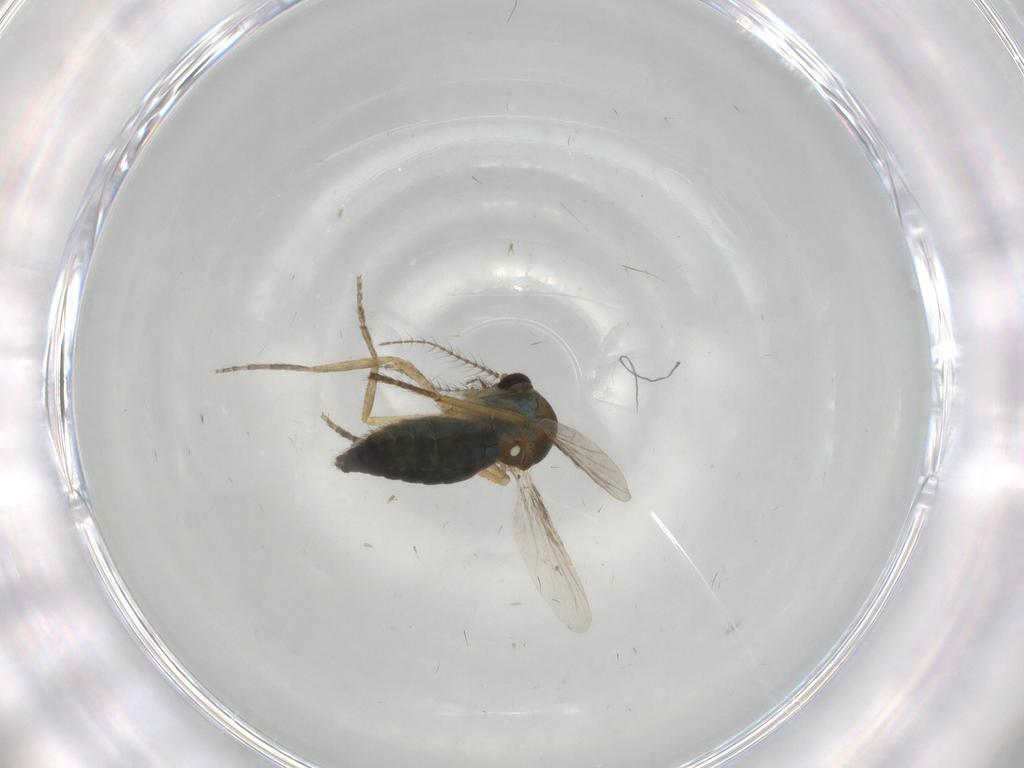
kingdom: Animalia
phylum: Arthropoda
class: Insecta
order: Diptera
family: Ceratopogonidae
